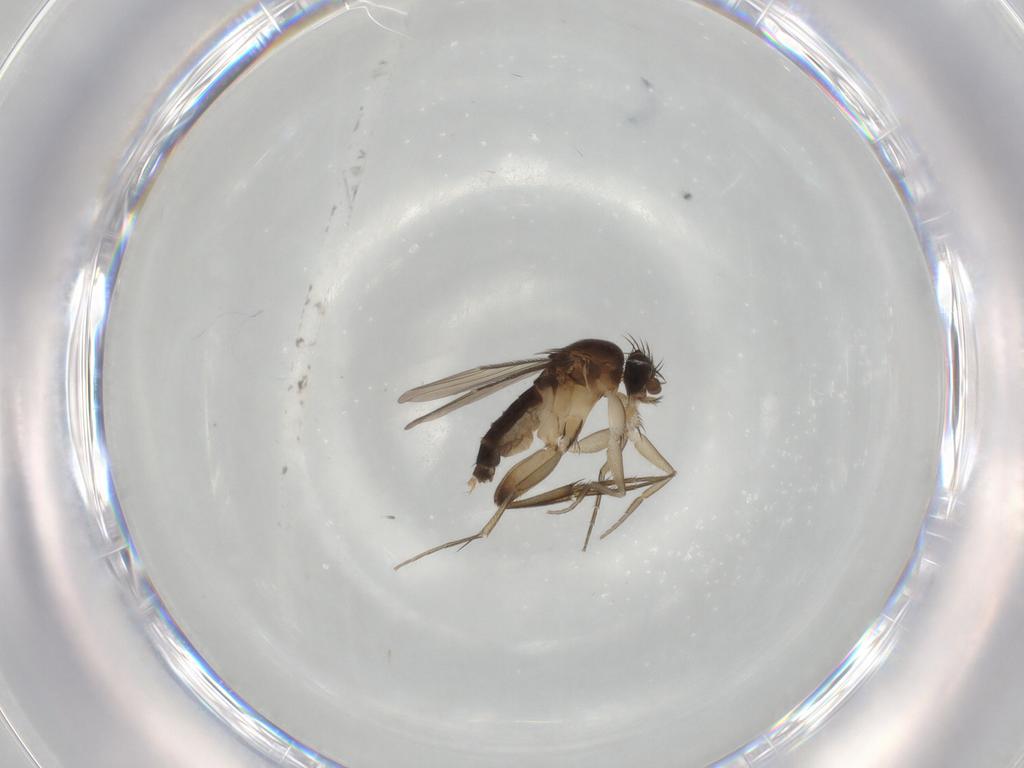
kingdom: Animalia
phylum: Arthropoda
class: Insecta
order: Diptera
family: Phoridae
